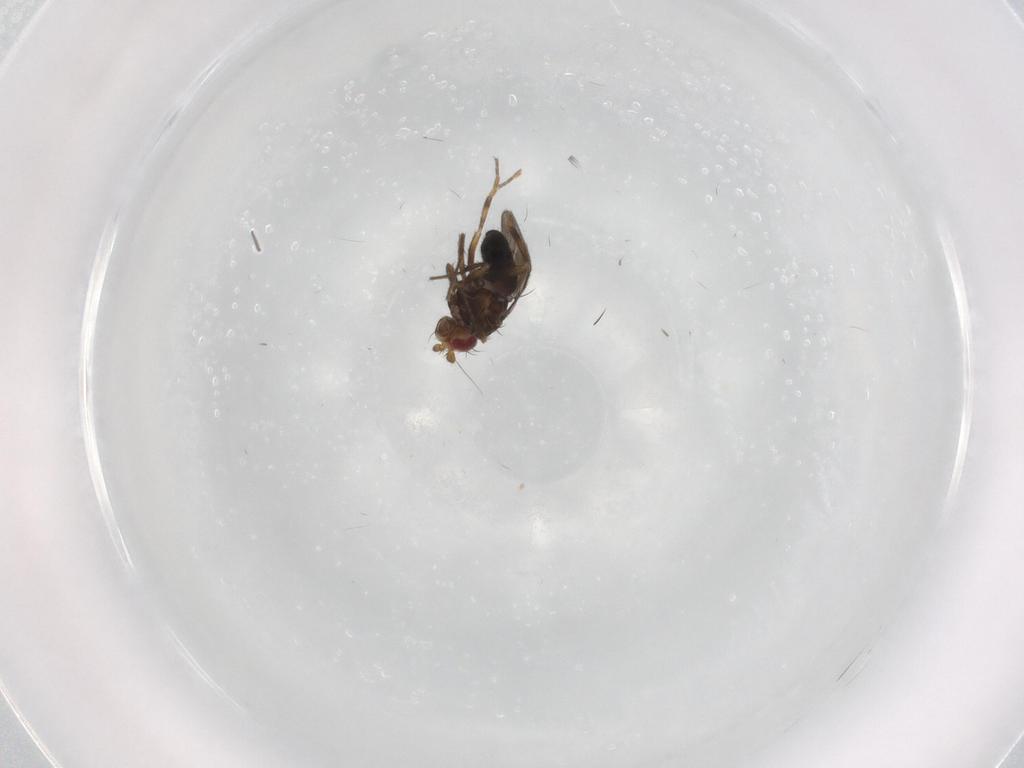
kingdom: Animalia
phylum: Arthropoda
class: Insecta
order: Diptera
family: Sphaeroceridae
